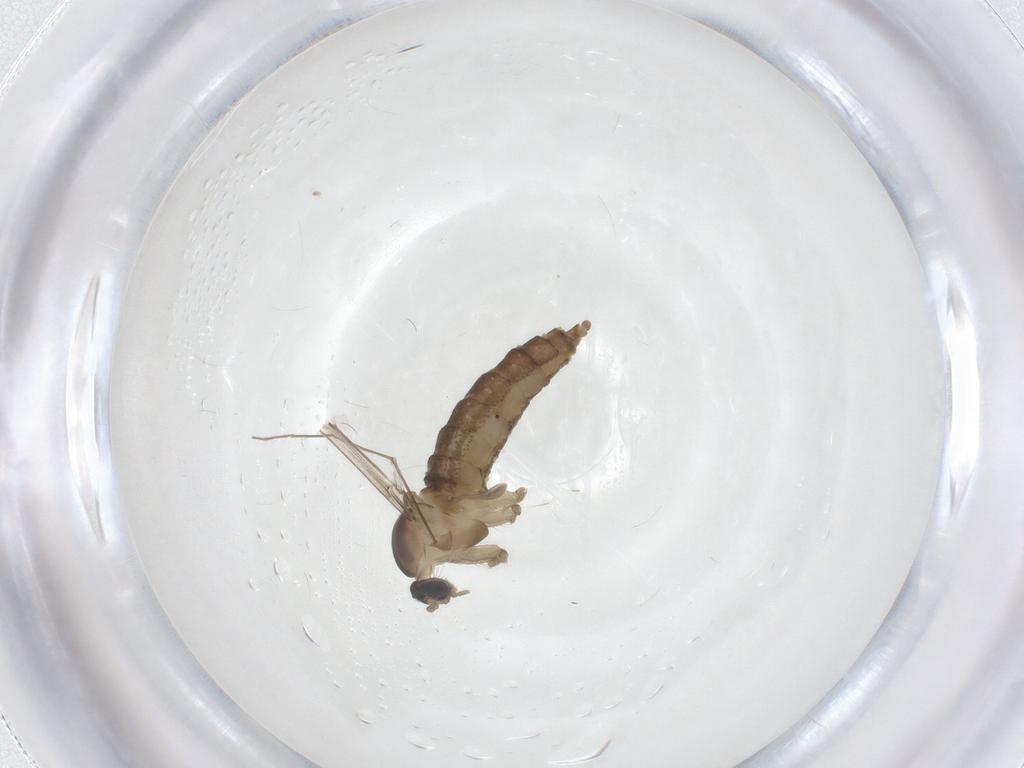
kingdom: Animalia
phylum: Arthropoda
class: Insecta
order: Diptera
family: Cecidomyiidae
